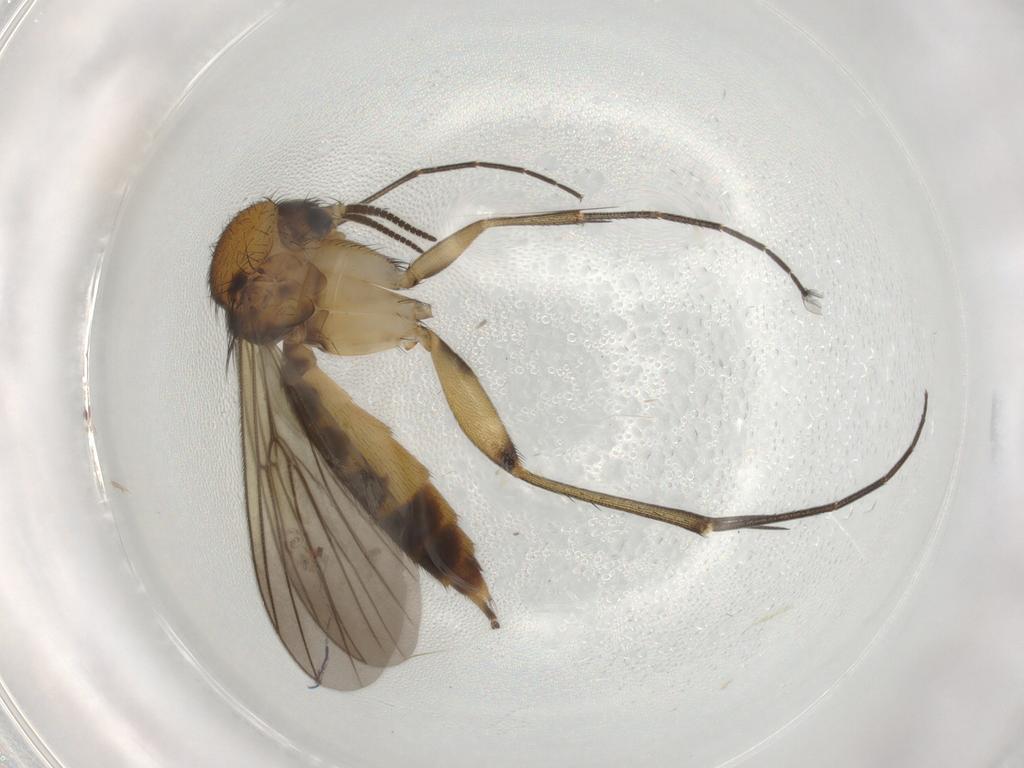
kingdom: Animalia
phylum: Arthropoda
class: Insecta
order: Diptera
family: Mycetophilidae
